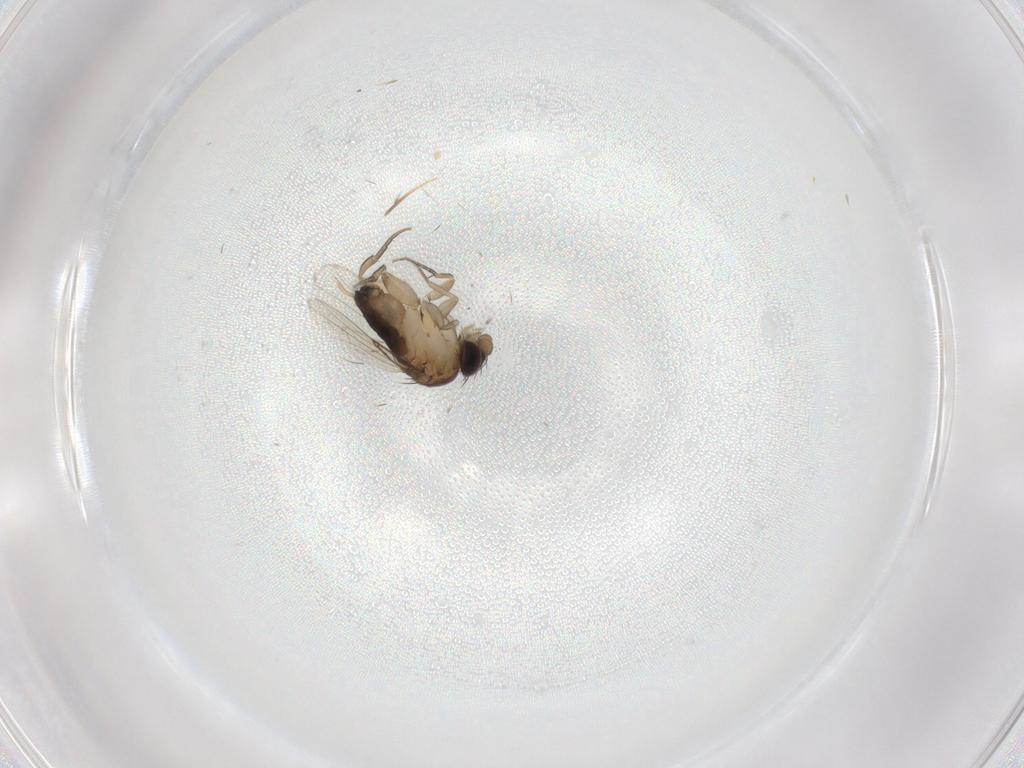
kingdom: Animalia
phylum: Arthropoda
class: Insecta
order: Diptera
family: Phoridae
